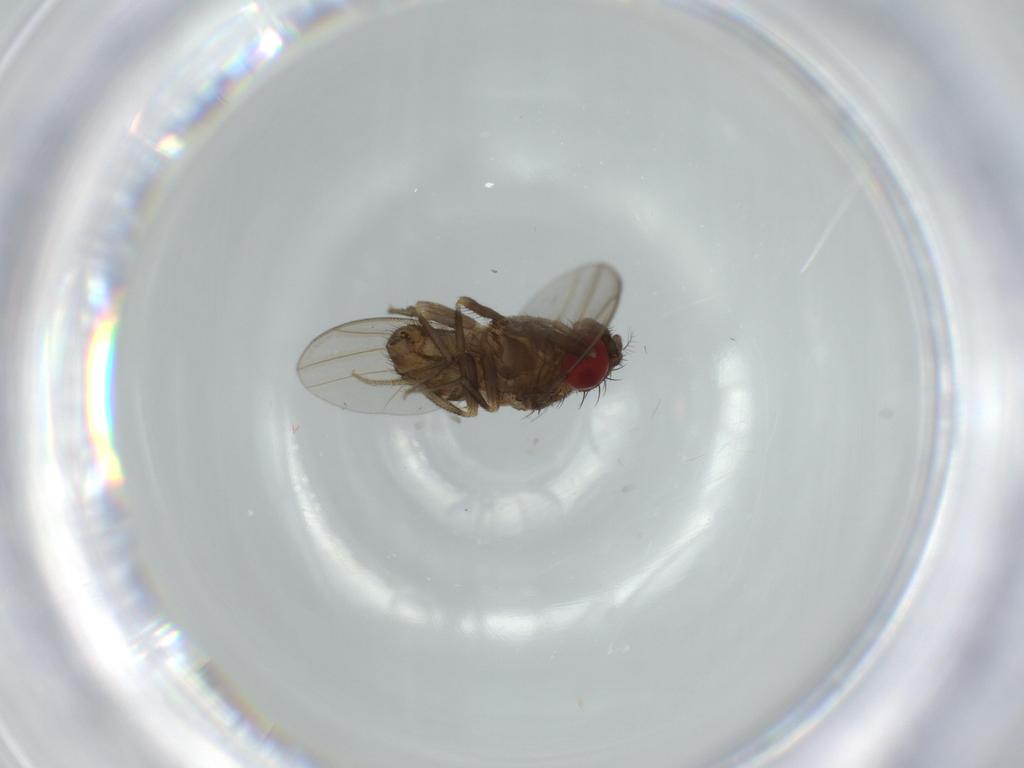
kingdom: Animalia
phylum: Arthropoda
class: Insecta
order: Diptera
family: Drosophilidae
